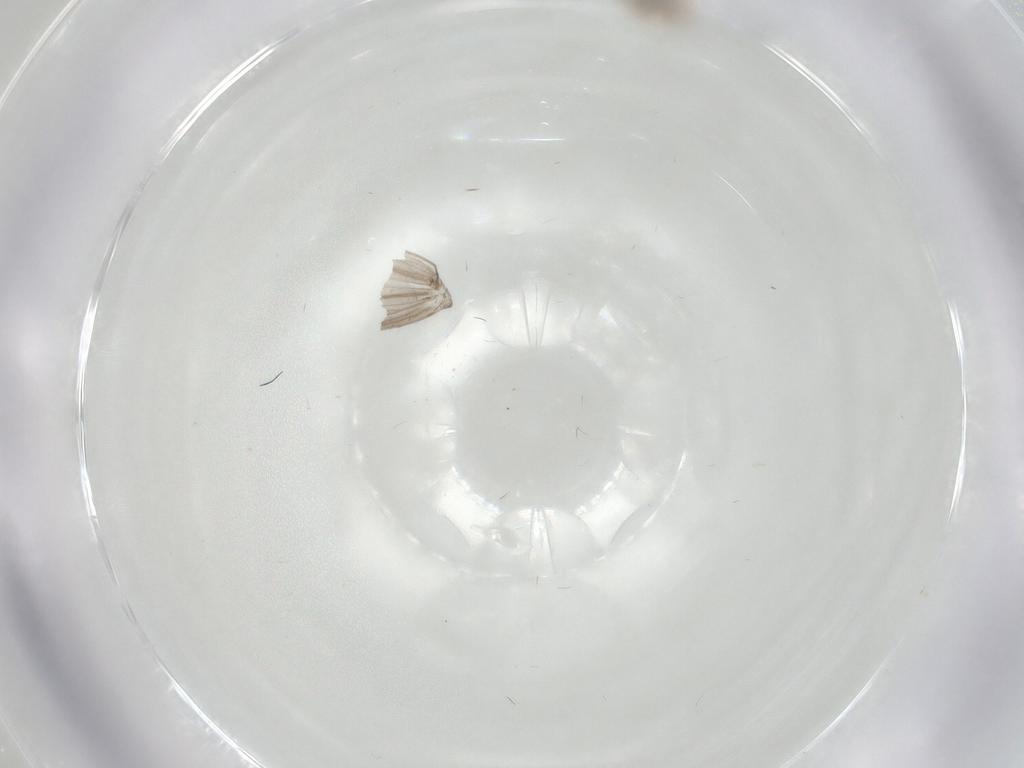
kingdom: Animalia
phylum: Arthropoda
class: Insecta
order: Diptera
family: Psychodidae
